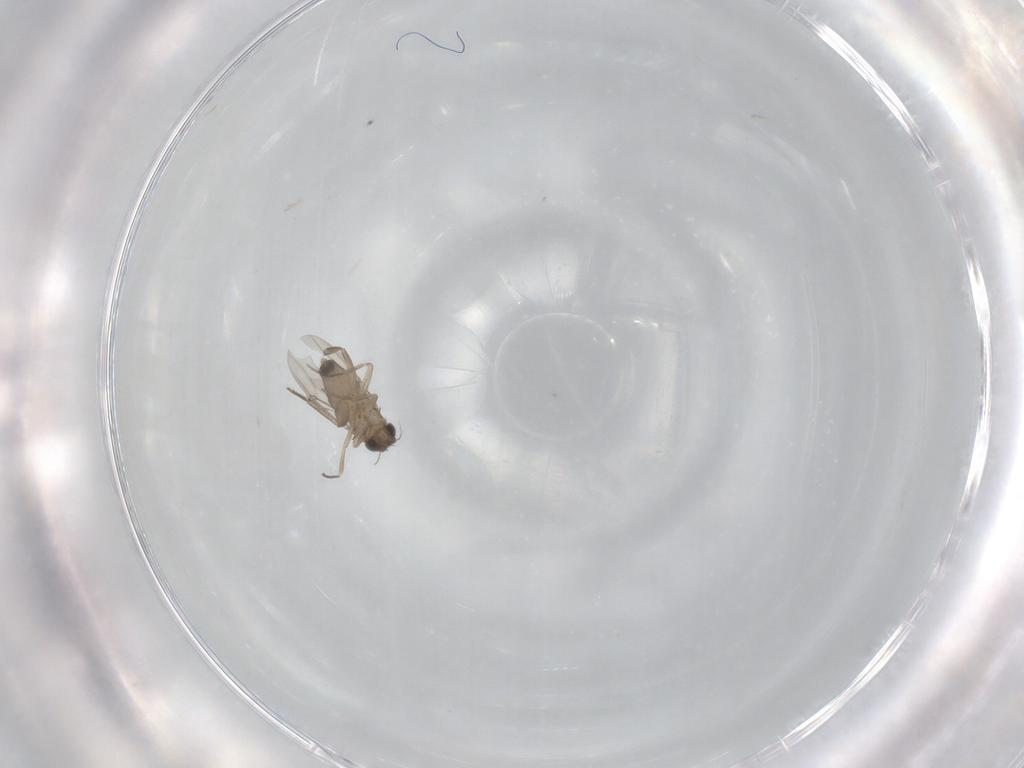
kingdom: Animalia
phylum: Arthropoda
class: Insecta
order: Diptera
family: Phoridae
